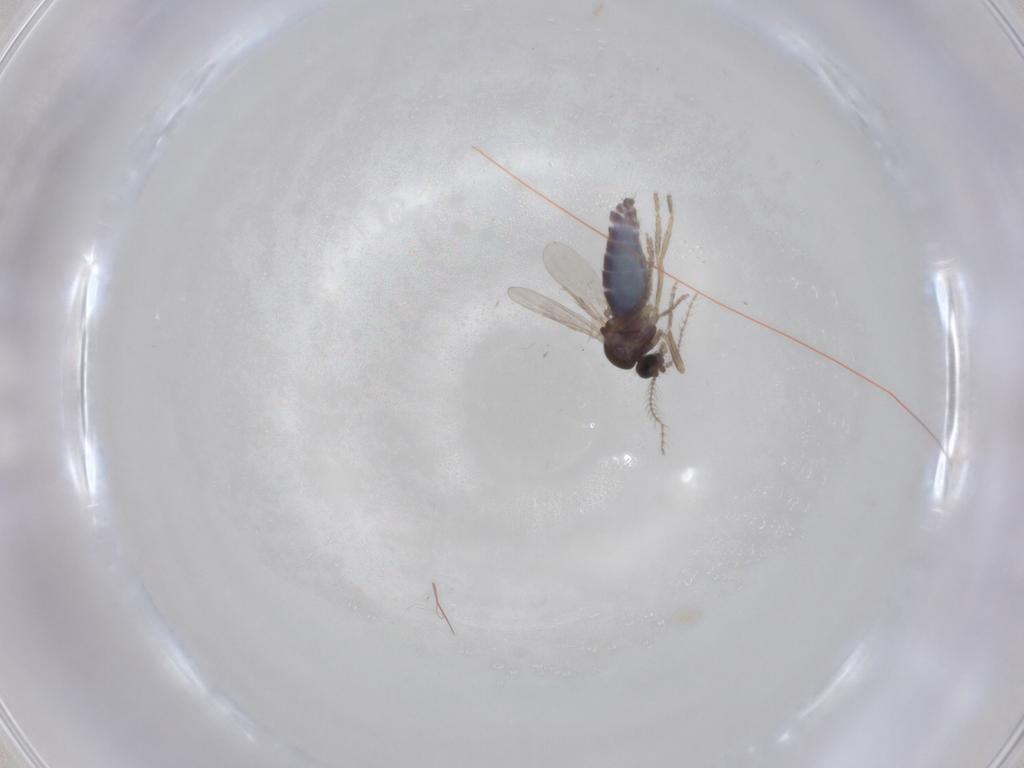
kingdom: Animalia
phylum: Arthropoda
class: Insecta
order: Diptera
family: Ceratopogonidae
